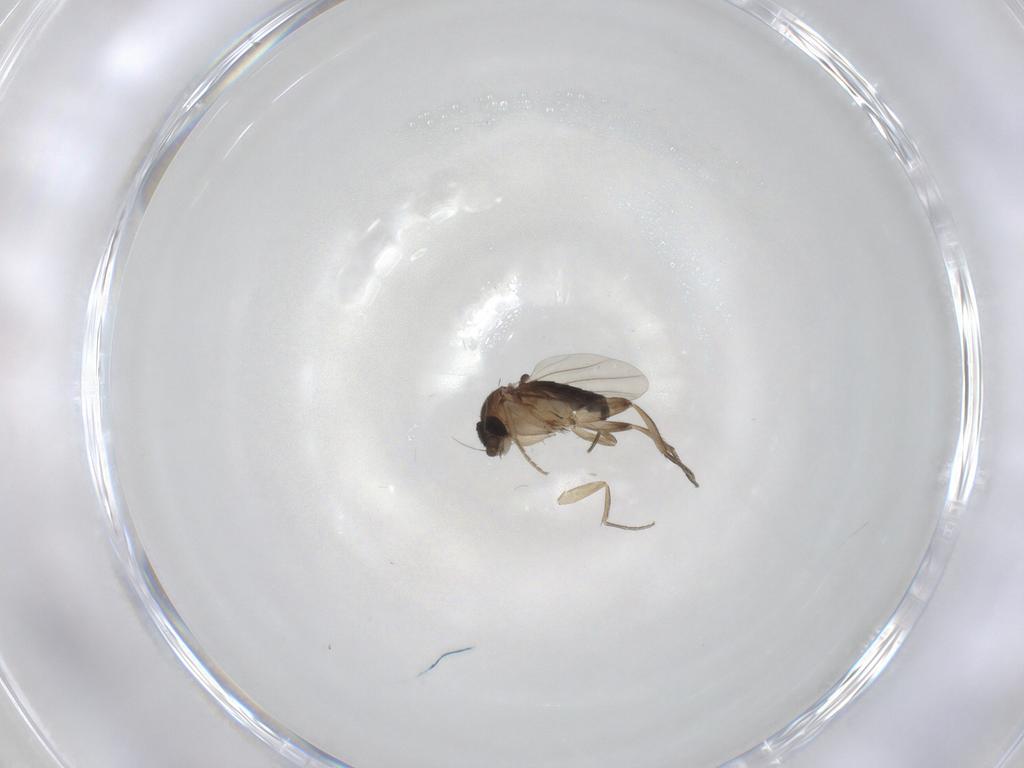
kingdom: Animalia
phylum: Arthropoda
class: Insecta
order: Diptera
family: Phoridae
